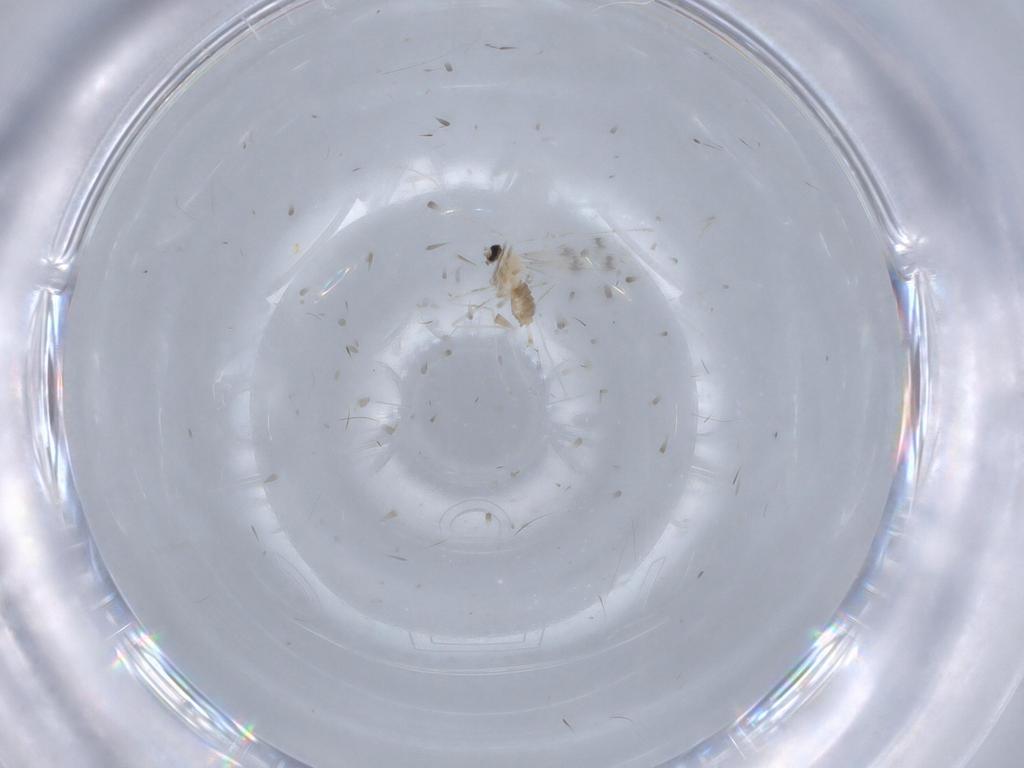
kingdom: Animalia
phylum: Arthropoda
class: Insecta
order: Diptera
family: Cecidomyiidae
